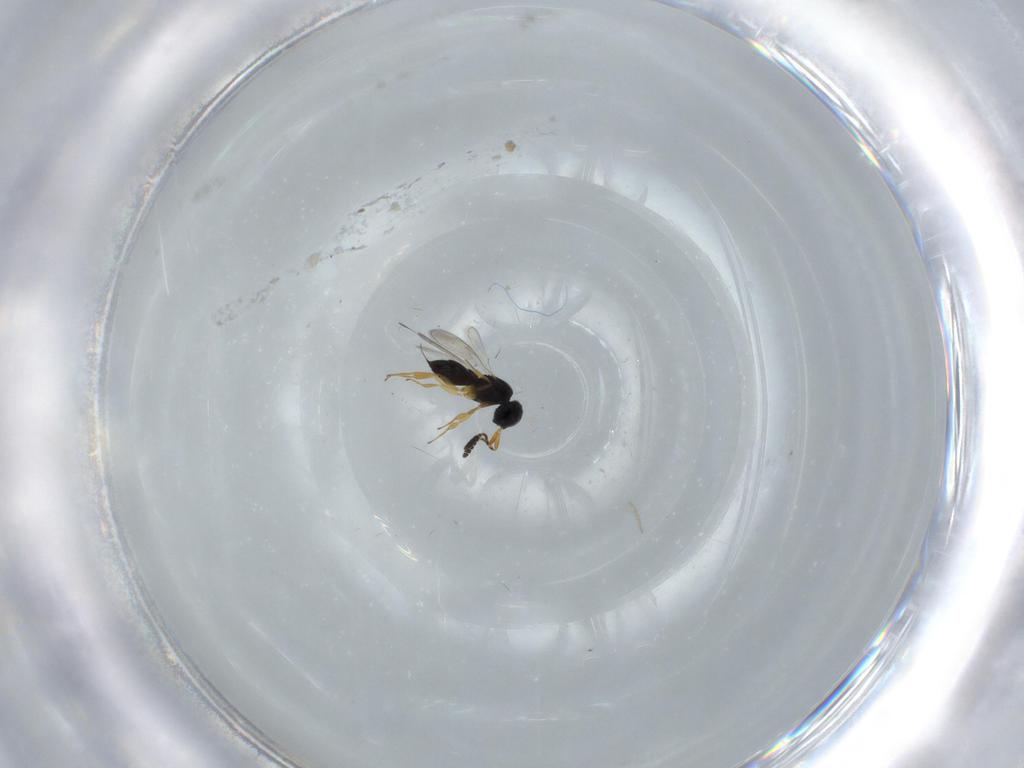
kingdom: Animalia
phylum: Arthropoda
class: Insecta
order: Hymenoptera
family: Scelionidae
